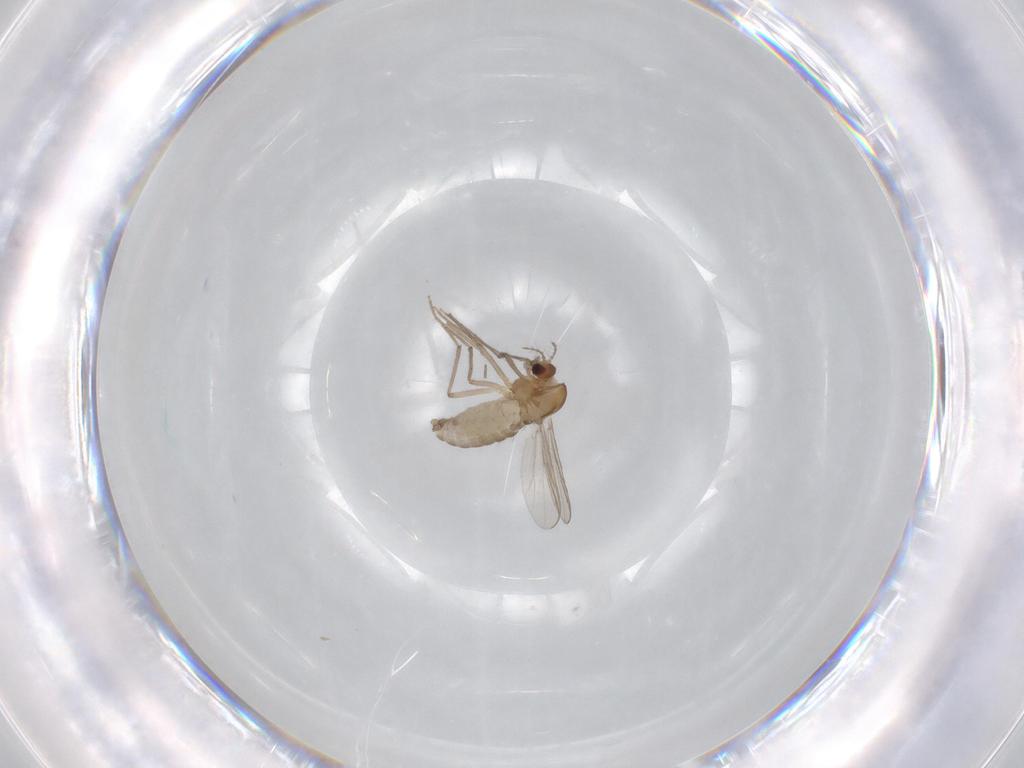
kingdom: Animalia
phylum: Arthropoda
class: Insecta
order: Diptera
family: Chironomidae
